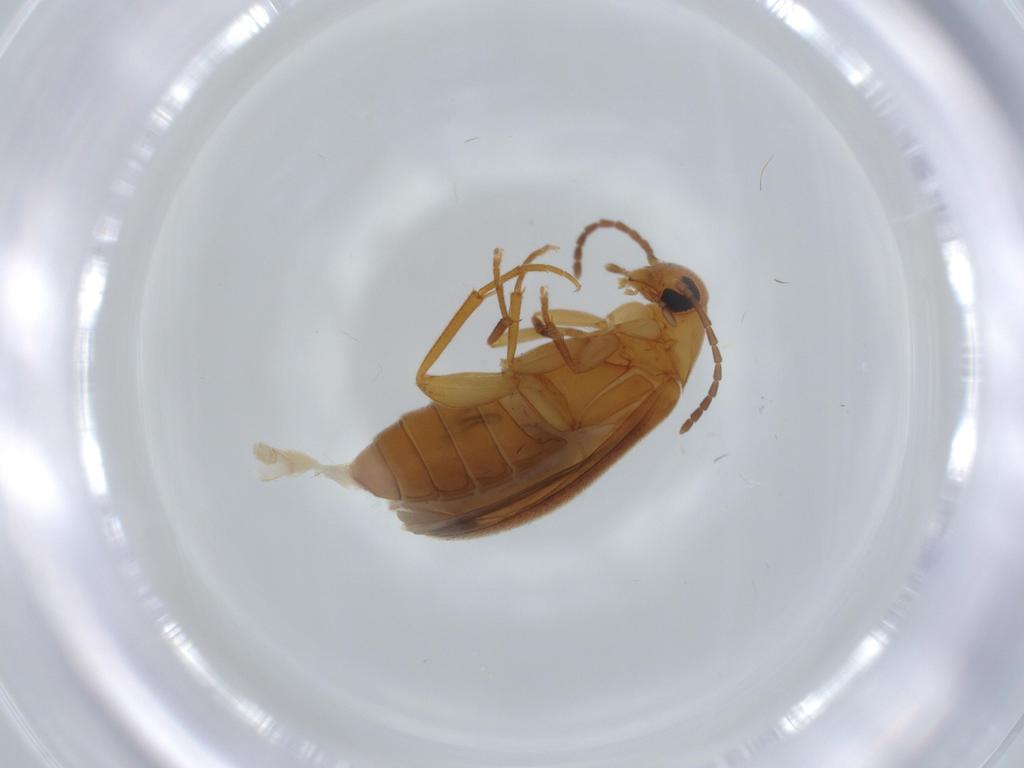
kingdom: Animalia
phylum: Arthropoda
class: Insecta
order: Coleoptera
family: Scraptiidae
